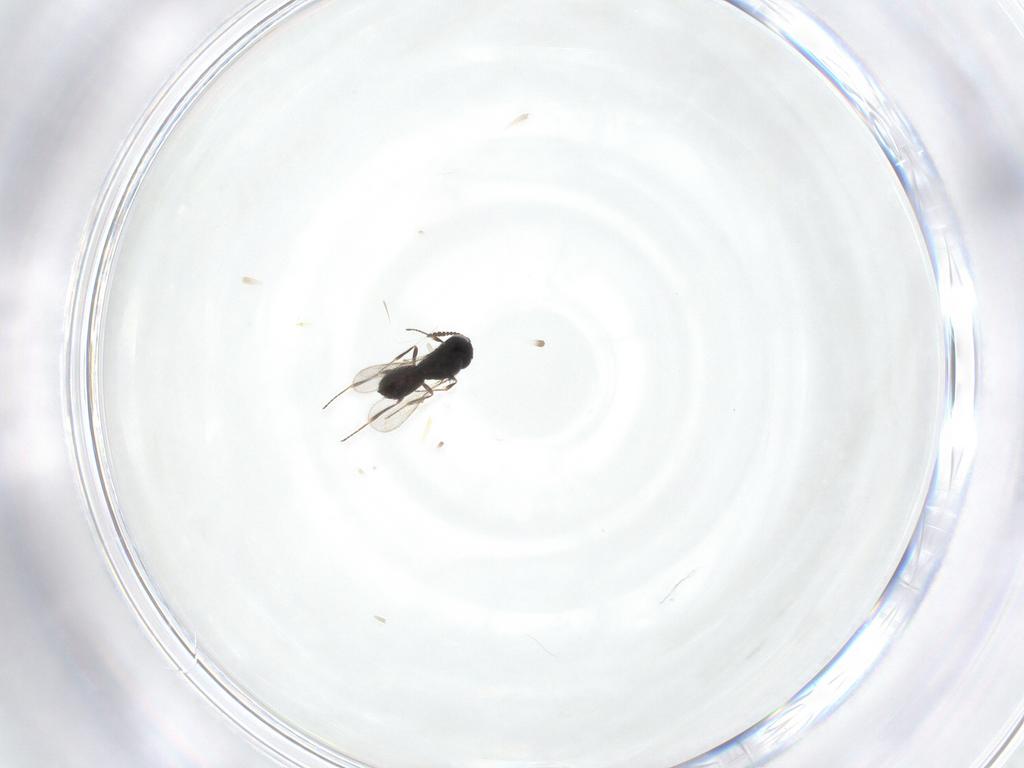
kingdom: Animalia
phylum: Arthropoda
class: Insecta
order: Hymenoptera
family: Scelionidae
